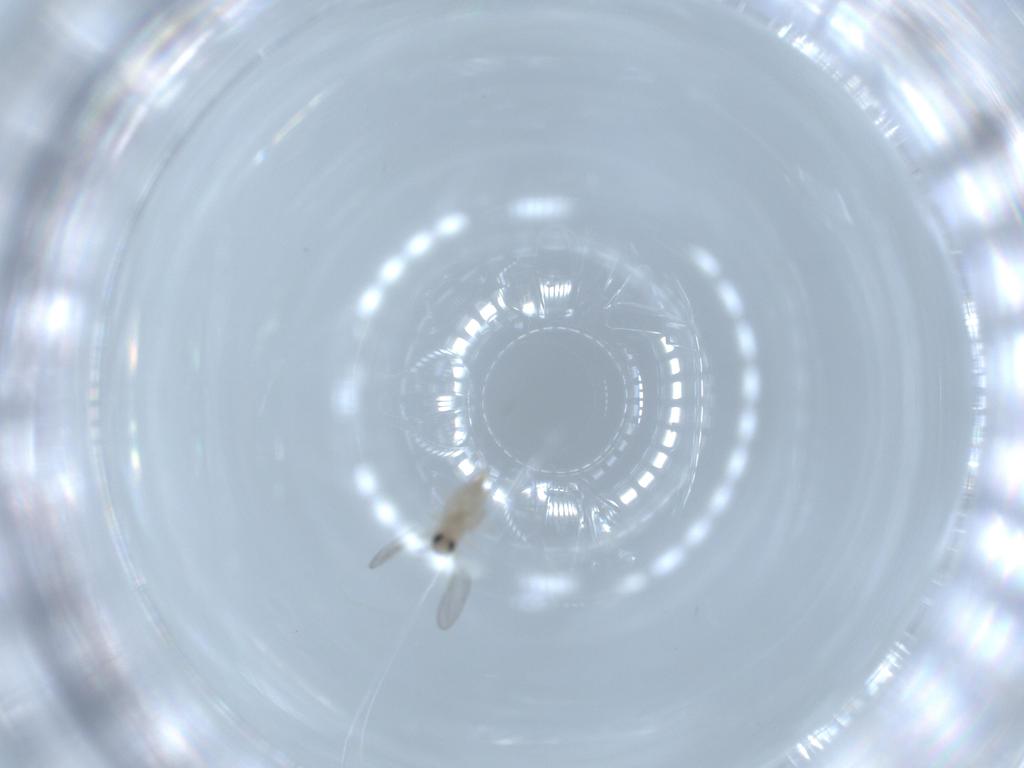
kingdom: Animalia
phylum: Arthropoda
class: Insecta
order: Diptera
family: Cecidomyiidae
